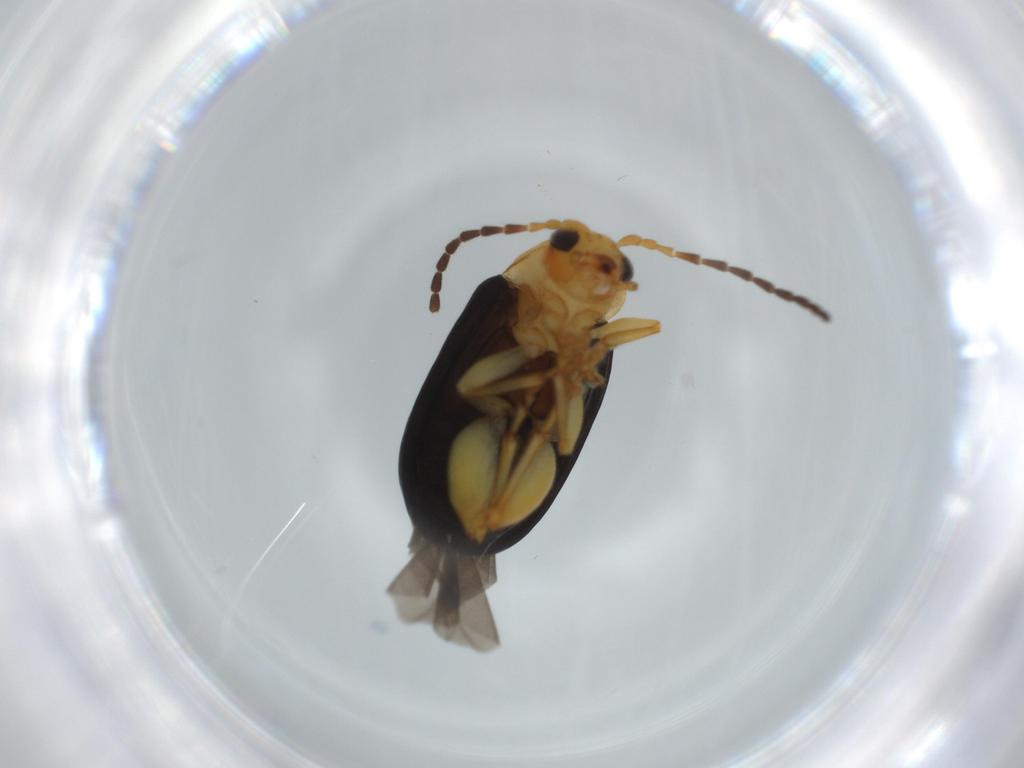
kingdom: Animalia
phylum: Arthropoda
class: Insecta
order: Coleoptera
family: Chrysomelidae
